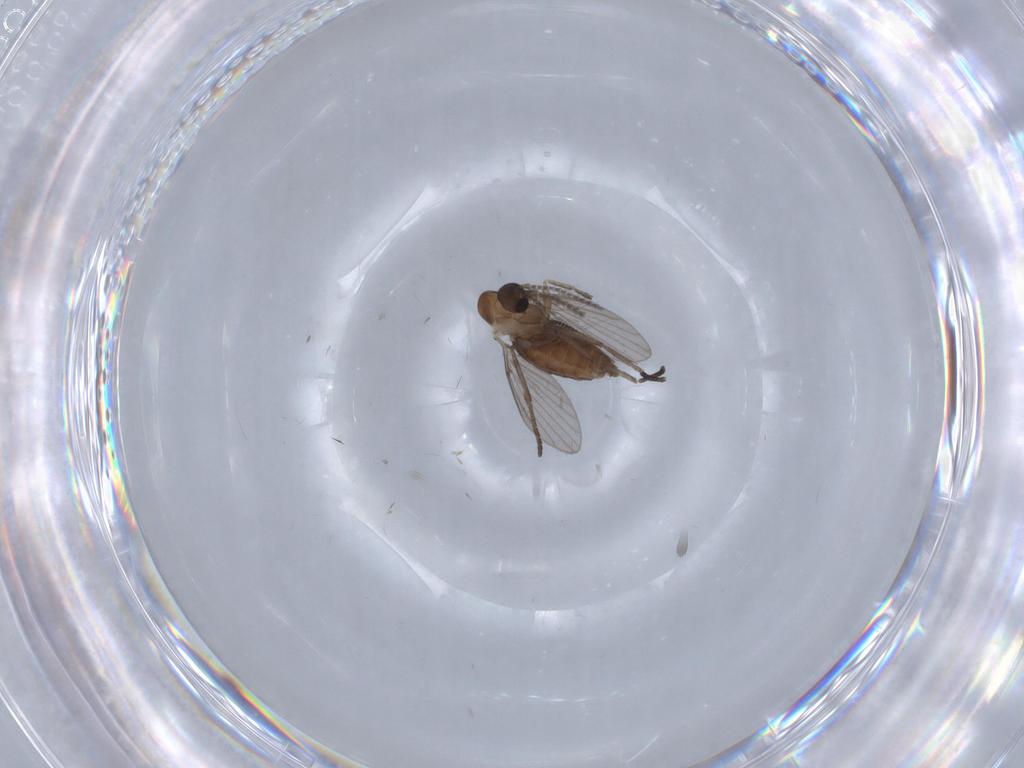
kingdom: Animalia
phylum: Arthropoda
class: Insecta
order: Diptera
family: Psychodidae
